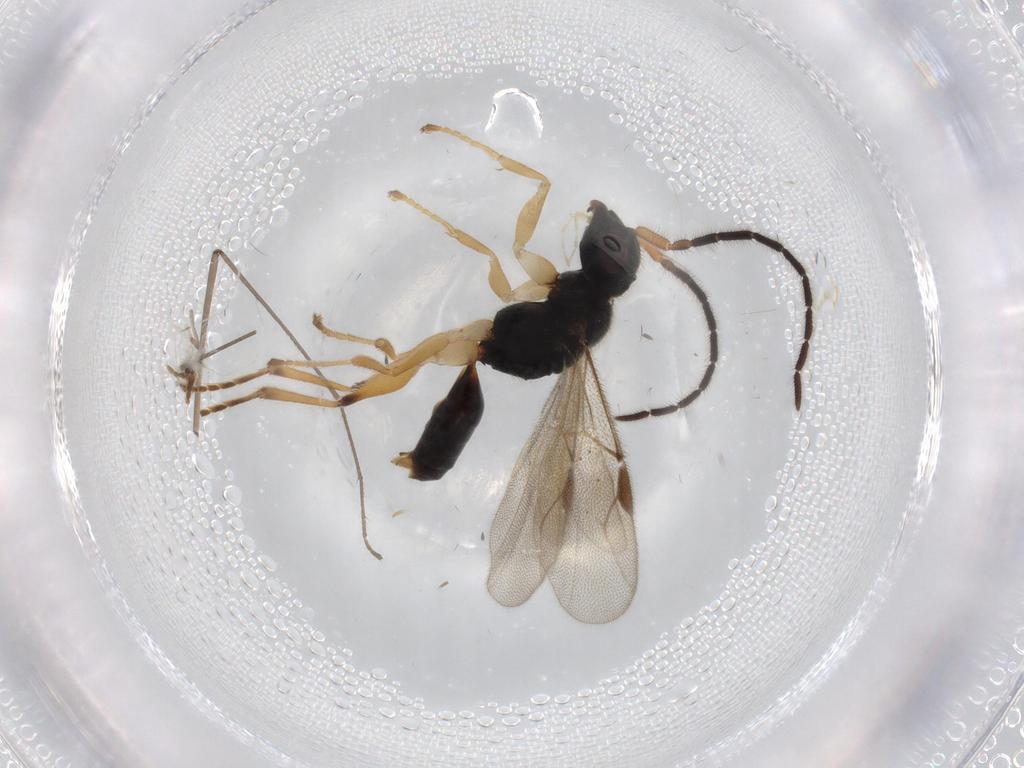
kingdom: Animalia
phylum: Arthropoda
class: Insecta
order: Hymenoptera
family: Dryinidae
